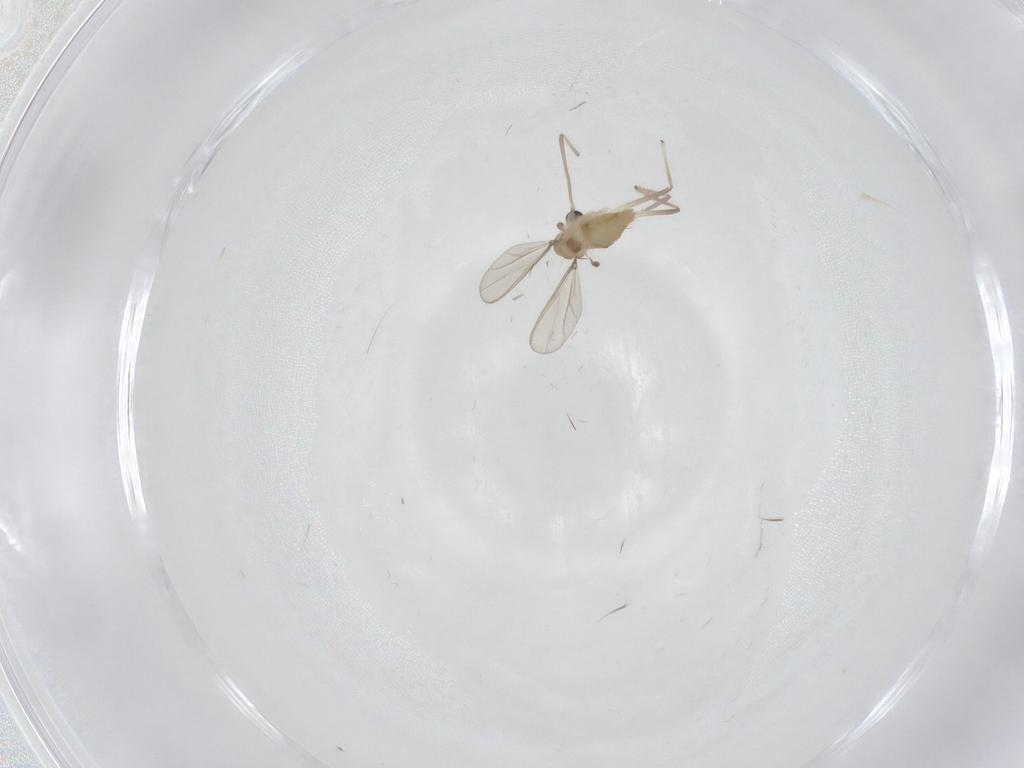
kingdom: Animalia
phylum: Arthropoda
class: Insecta
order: Diptera
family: Chironomidae
